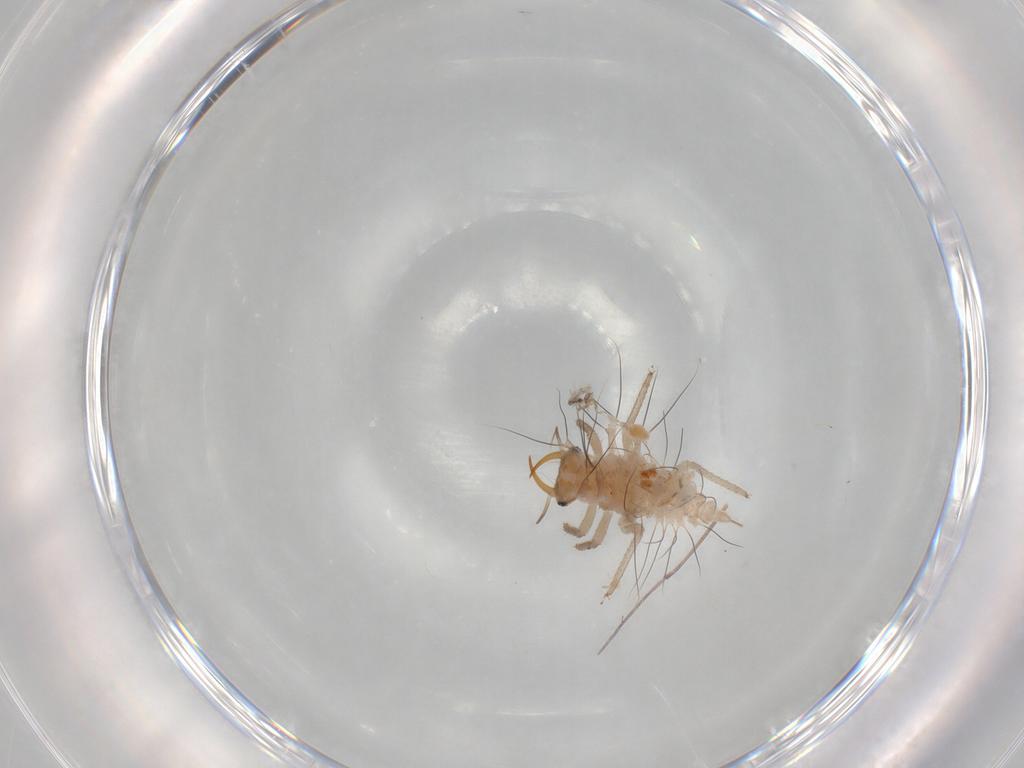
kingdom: Animalia
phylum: Arthropoda
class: Insecta
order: Neuroptera
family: Chrysopidae
